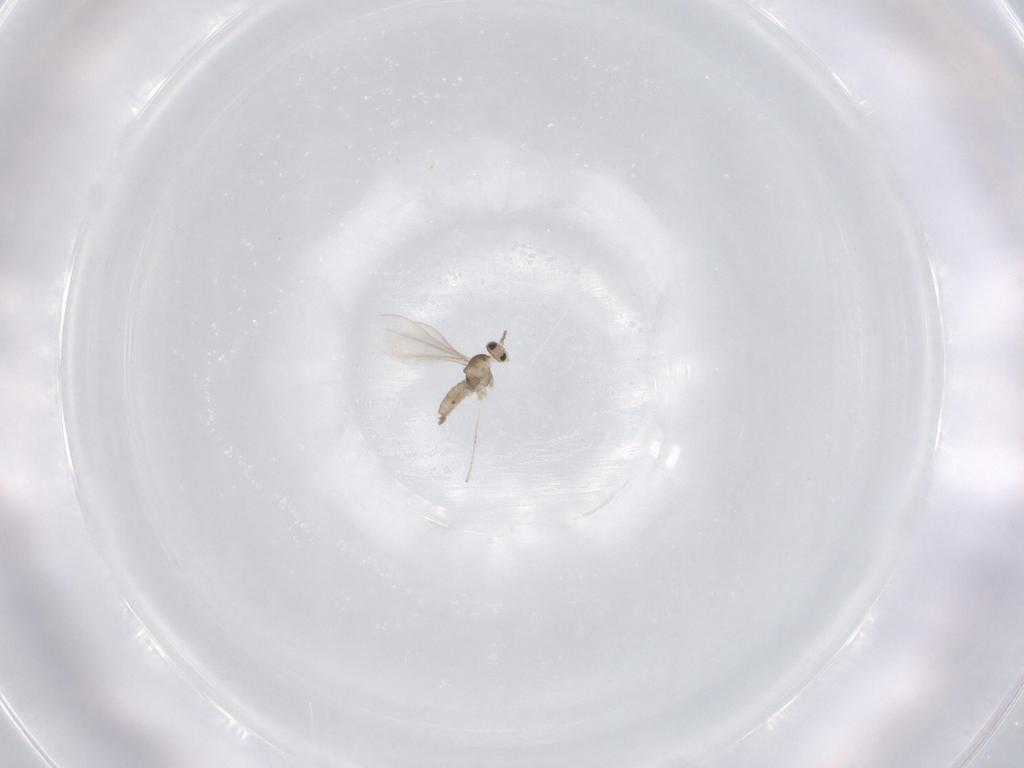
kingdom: Animalia
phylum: Arthropoda
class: Insecta
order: Diptera
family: Cecidomyiidae
